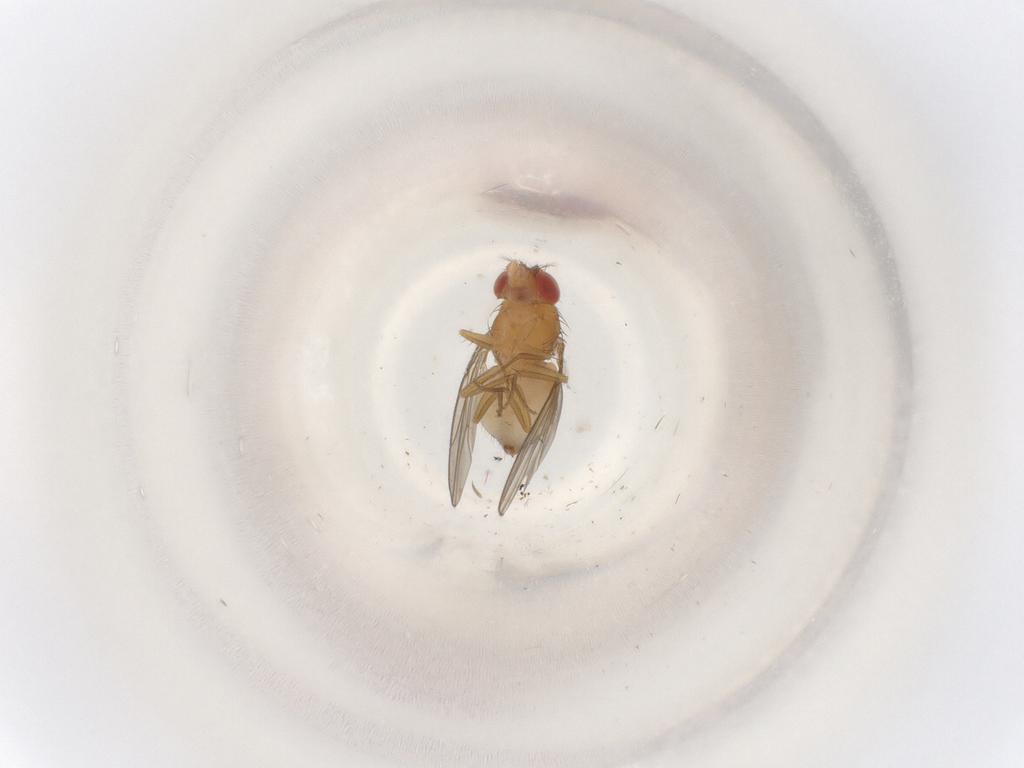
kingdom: Animalia
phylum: Arthropoda
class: Insecta
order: Diptera
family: Drosophilidae
